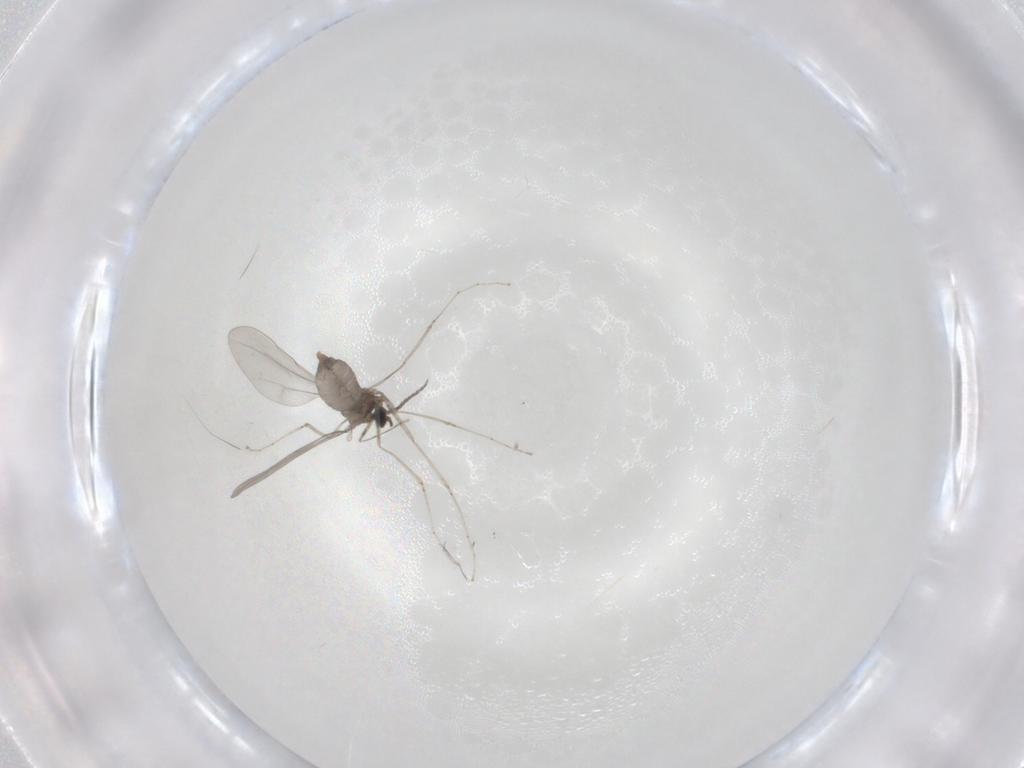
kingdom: Animalia
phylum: Arthropoda
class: Insecta
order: Diptera
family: Cecidomyiidae
